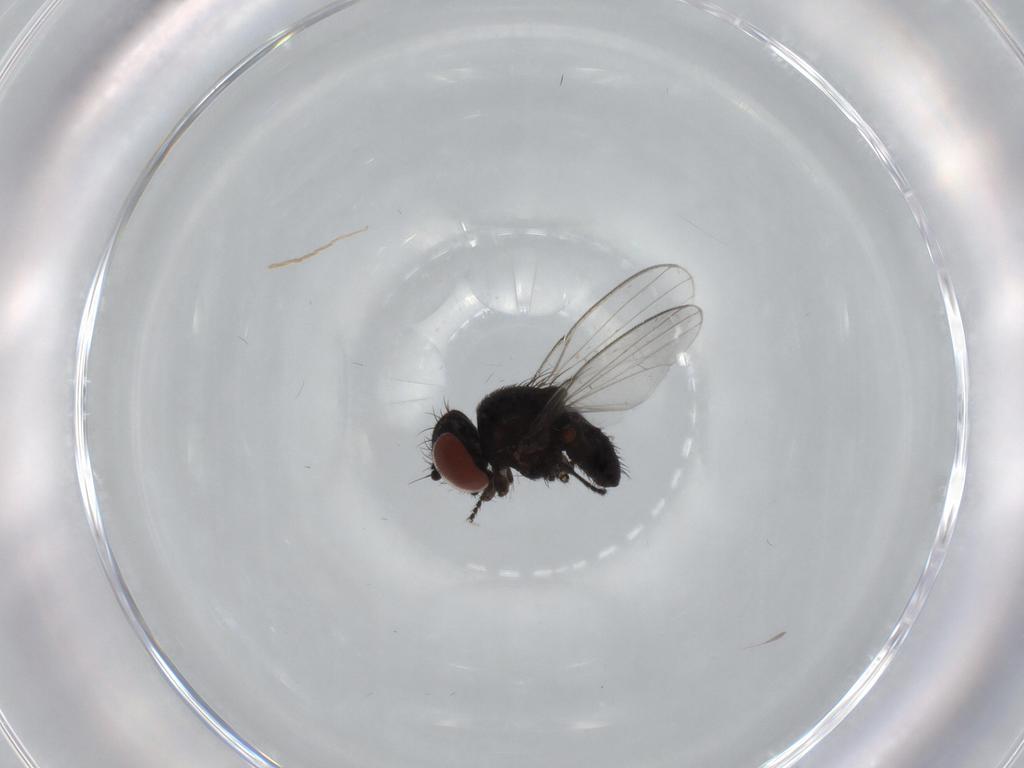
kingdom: Animalia
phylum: Arthropoda
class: Insecta
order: Diptera
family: Milichiidae
